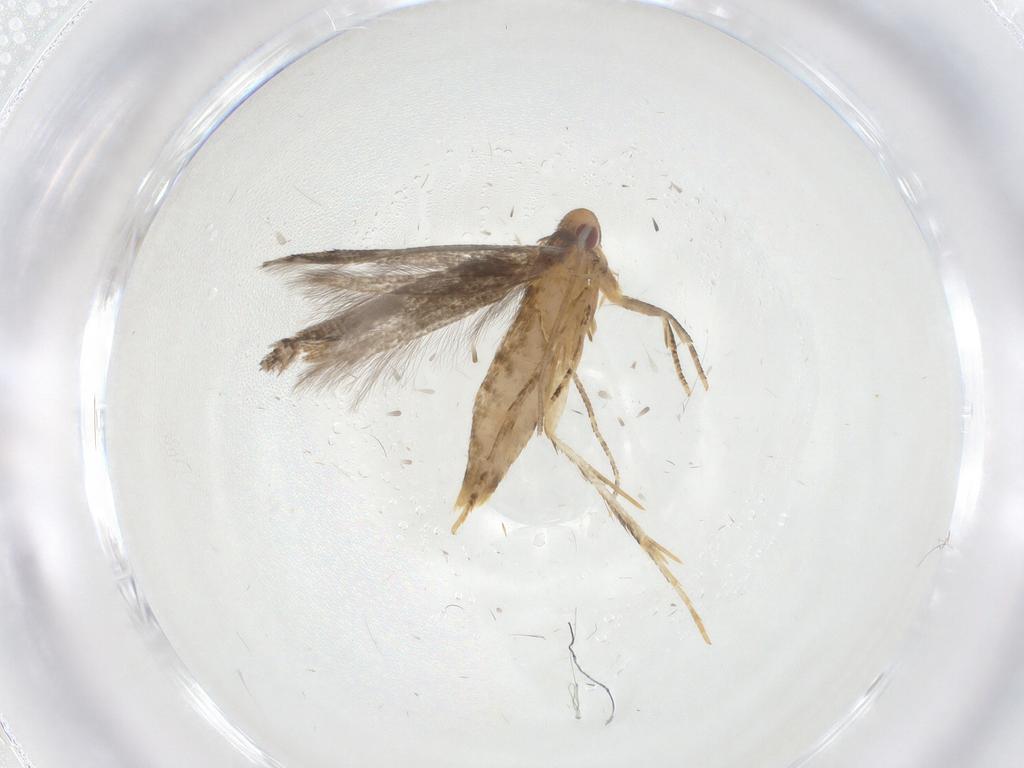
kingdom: Animalia
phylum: Arthropoda
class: Insecta
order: Lepidoptera
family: Momphidae
